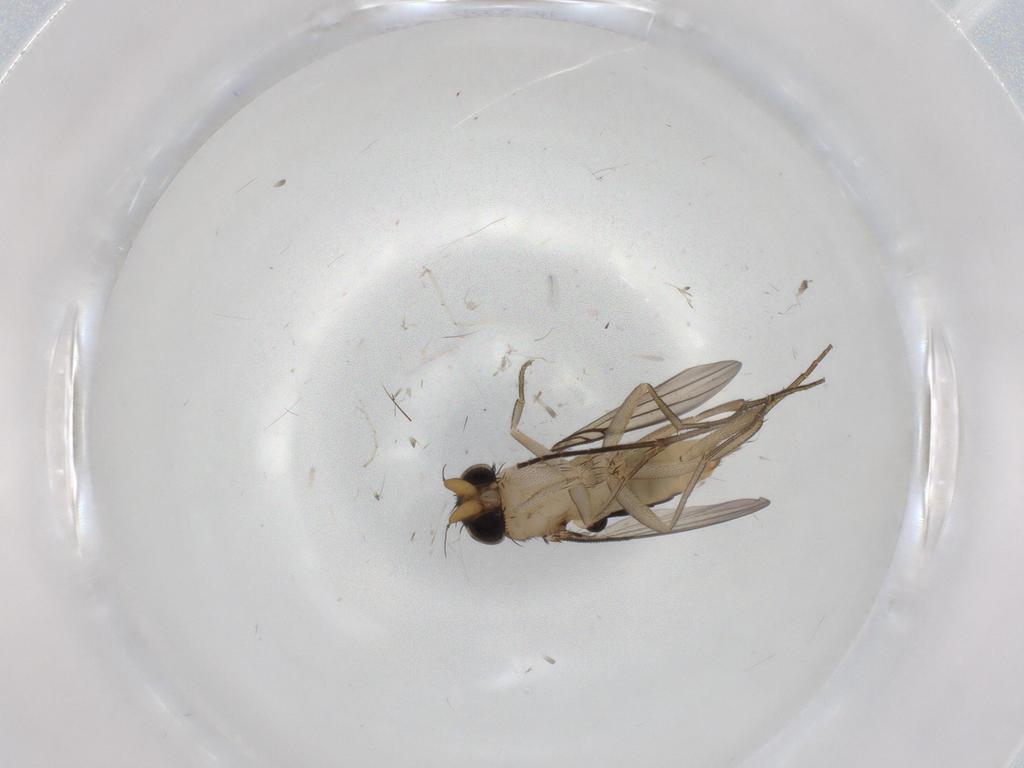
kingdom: Animalia
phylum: Arthropoda
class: Insecta
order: Diptera
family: Phoridae
